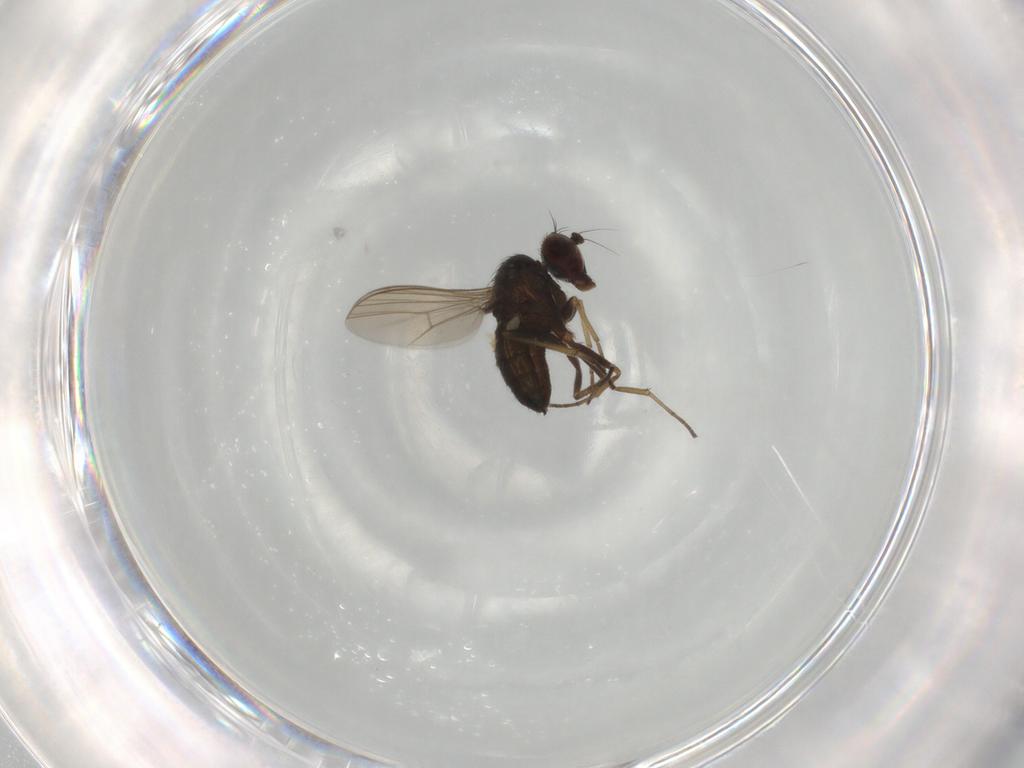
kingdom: Animalia
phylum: Arthropoda
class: Insecta
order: Diptera
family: Dolichopodidae
